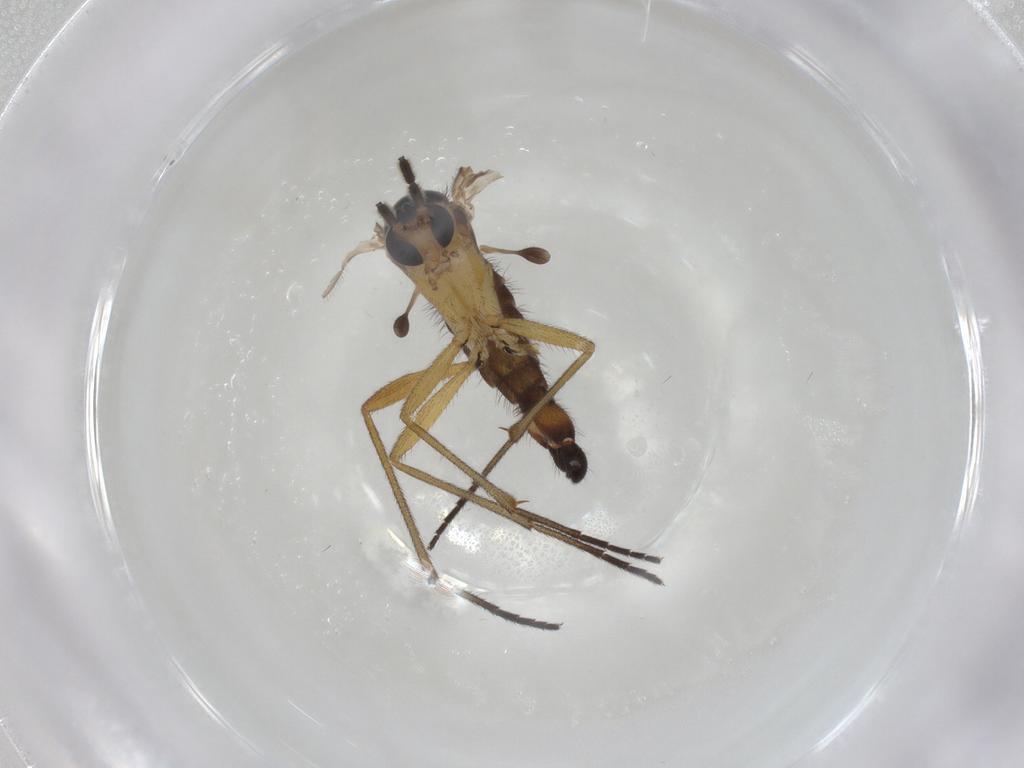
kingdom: Animalia
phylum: Arthropoda
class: Insecta
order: Diptera
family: Sciaridae
